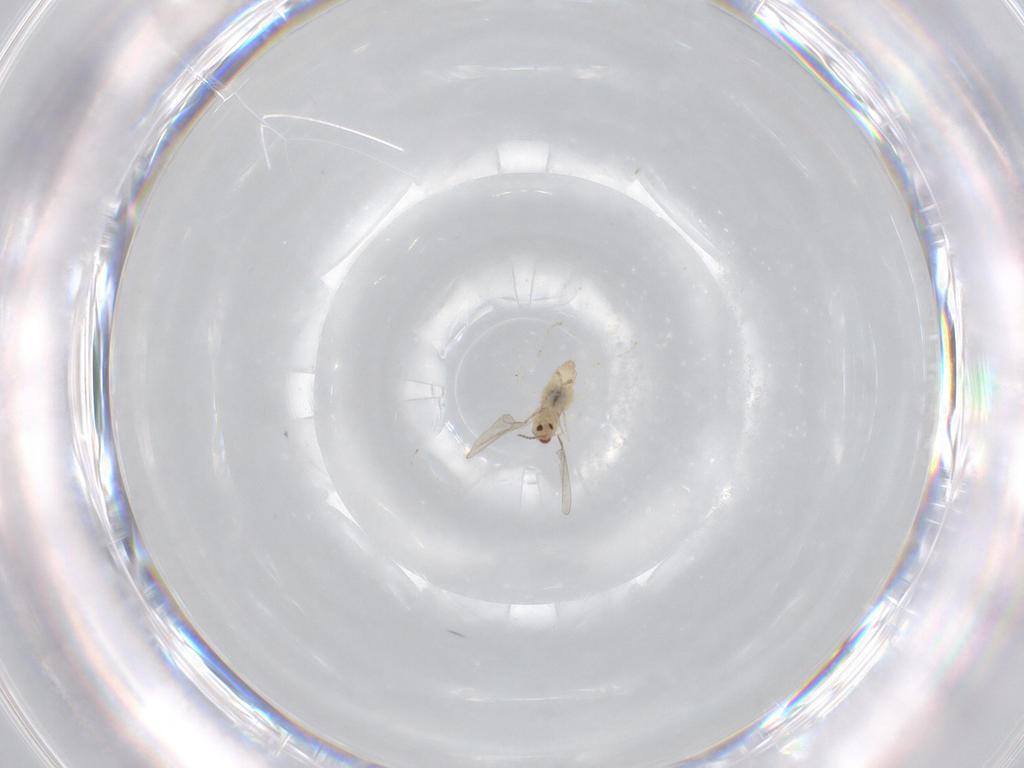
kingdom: Animalia
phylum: Arthropoda
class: Insecta
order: Diptera
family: Cecidomyiidae
